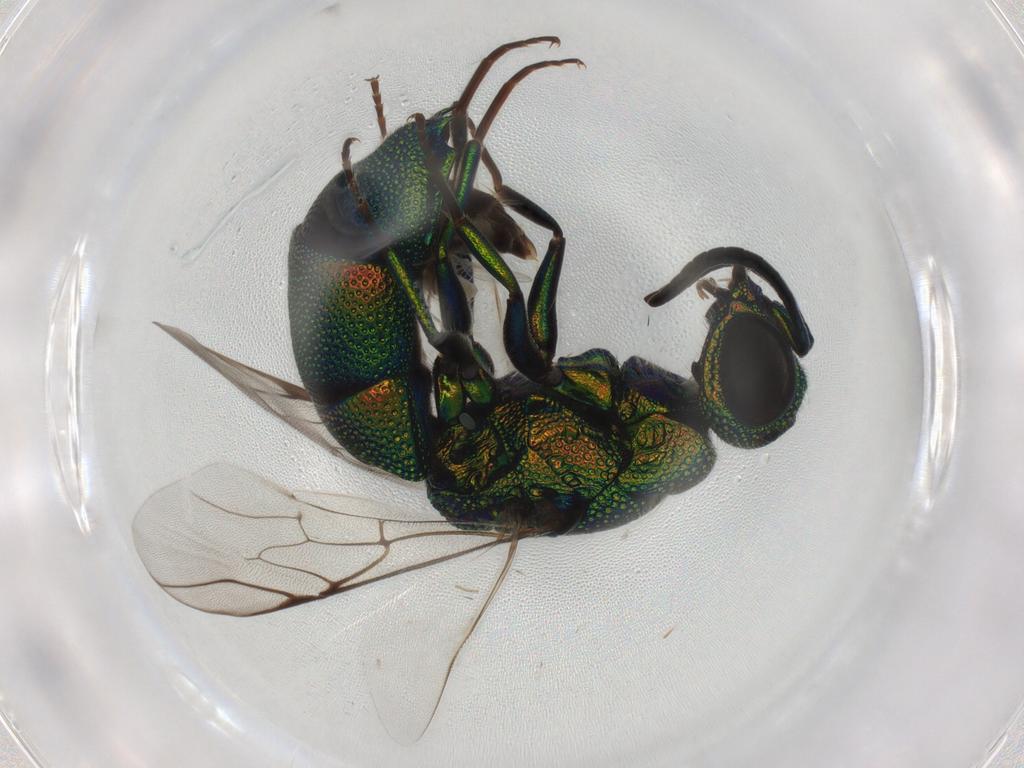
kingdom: Animalia
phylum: Arthropoda
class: Insecta
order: Hymenoptera
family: Chrysididae
